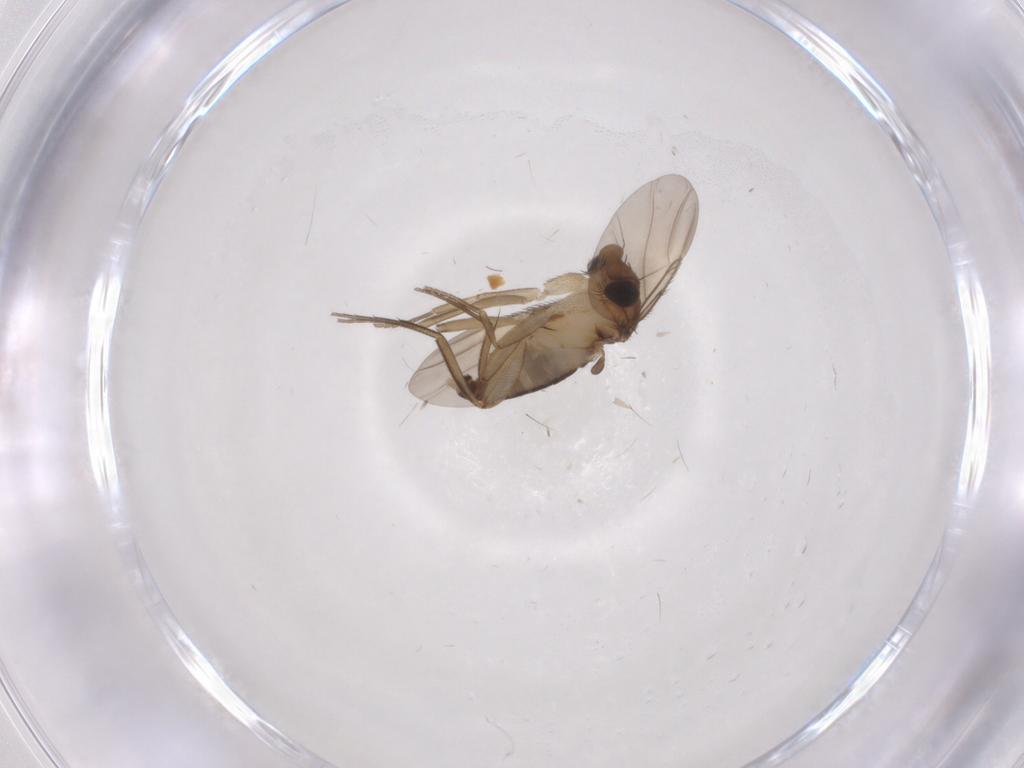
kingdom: Animalia
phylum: Arthropoda
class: Insecta
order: Diptera
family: Phoridae
